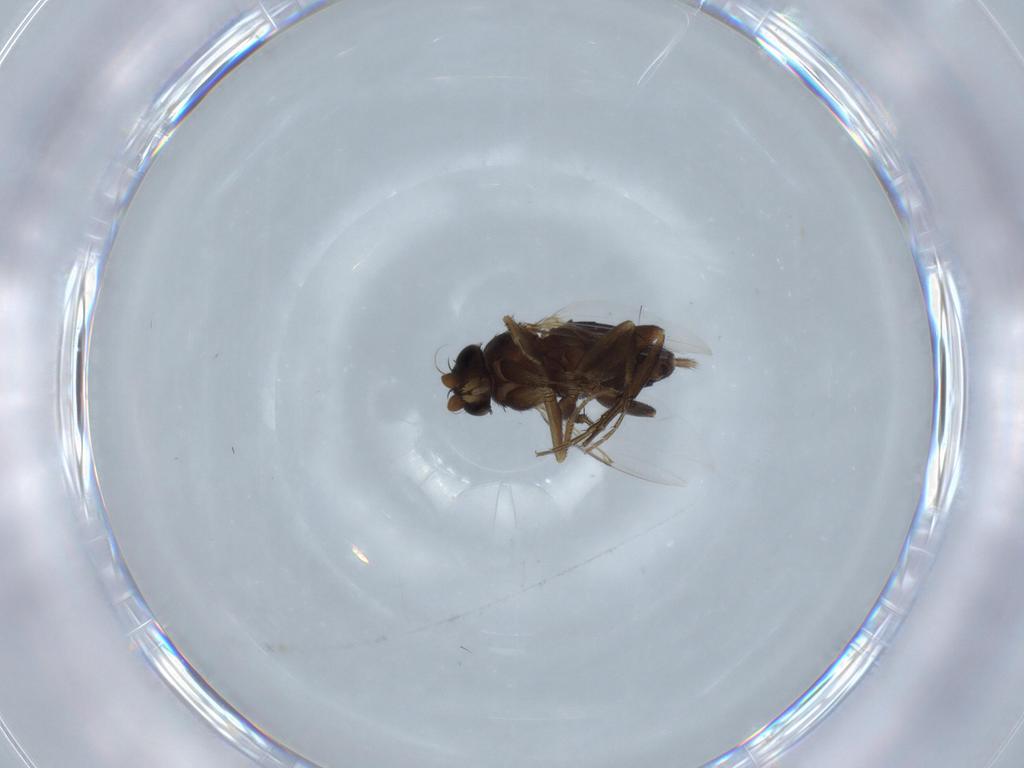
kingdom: Animalia
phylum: Arthropoda
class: Insecta
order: Diptera
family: Phoridae
